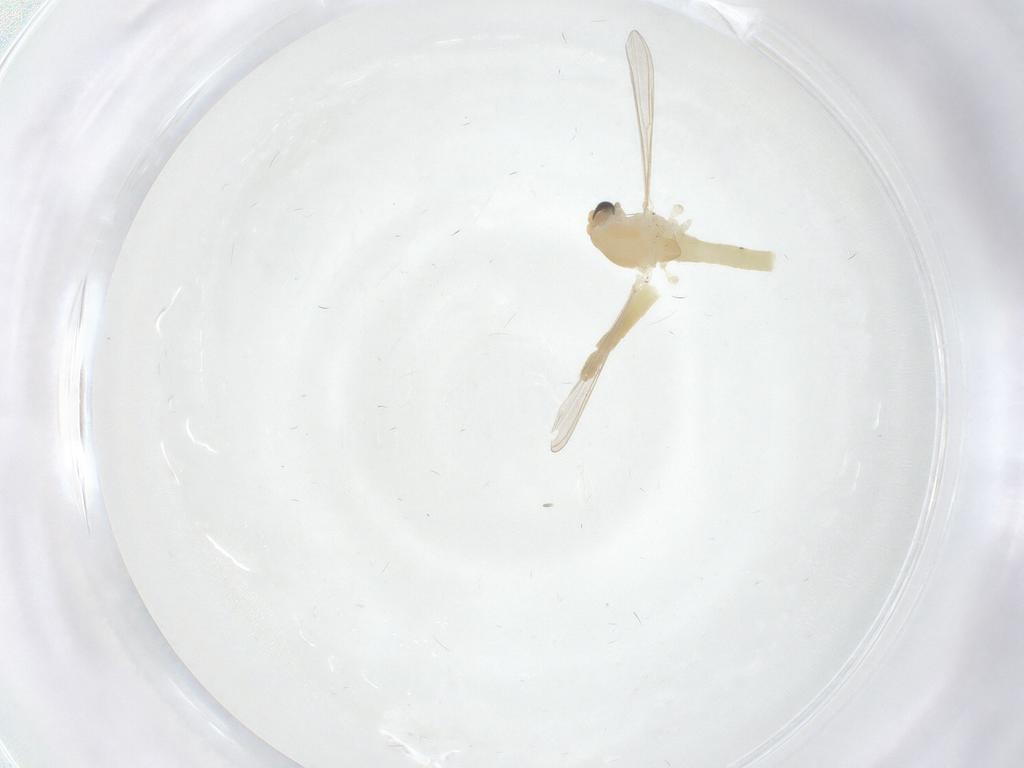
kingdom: Animalia
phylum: Arthropoda
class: Insecta
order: Diptera
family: Chironomidae
